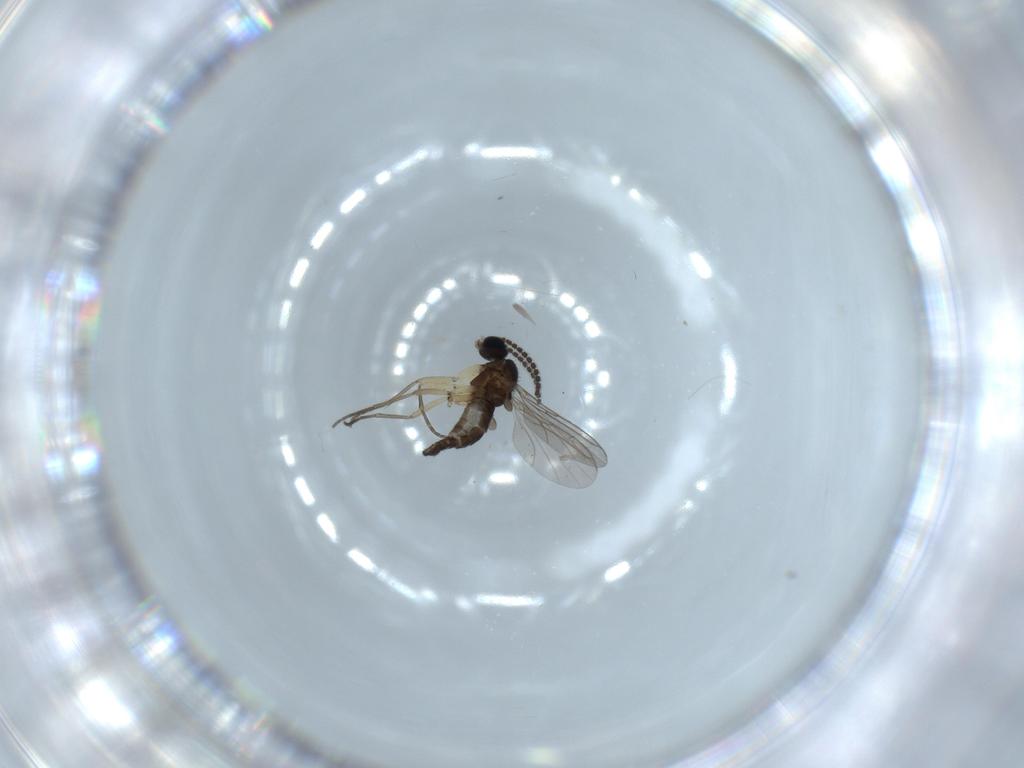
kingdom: Animalia
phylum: Arthropoda
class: Insecta
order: Diptera
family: Sciaridae
